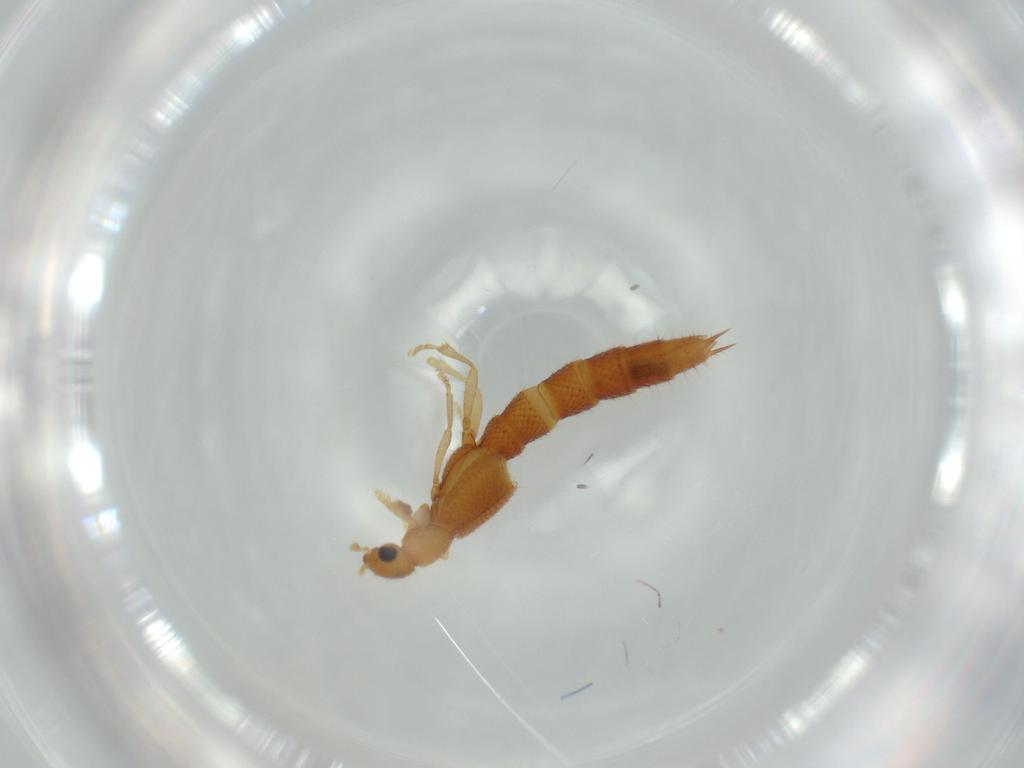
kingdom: Animalia
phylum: Arthropoda
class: Insecta
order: Coleoptera
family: Staphylinidae
